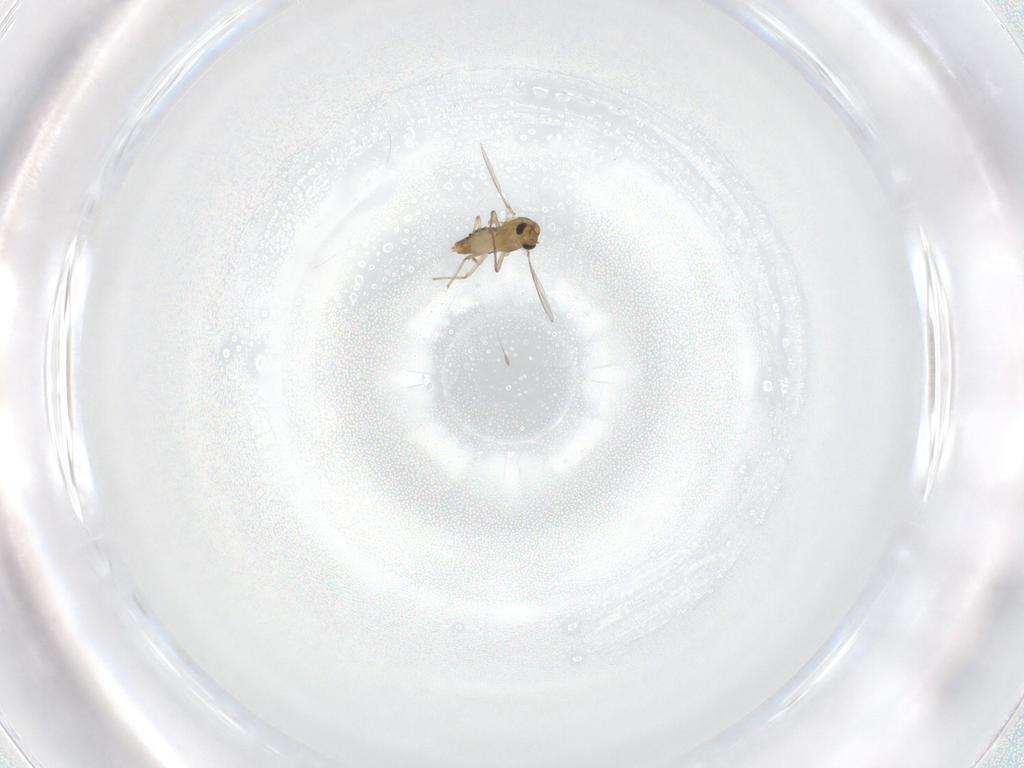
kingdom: Animalia
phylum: Arthropoda
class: Insecta
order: Diptera
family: Chironomidae
